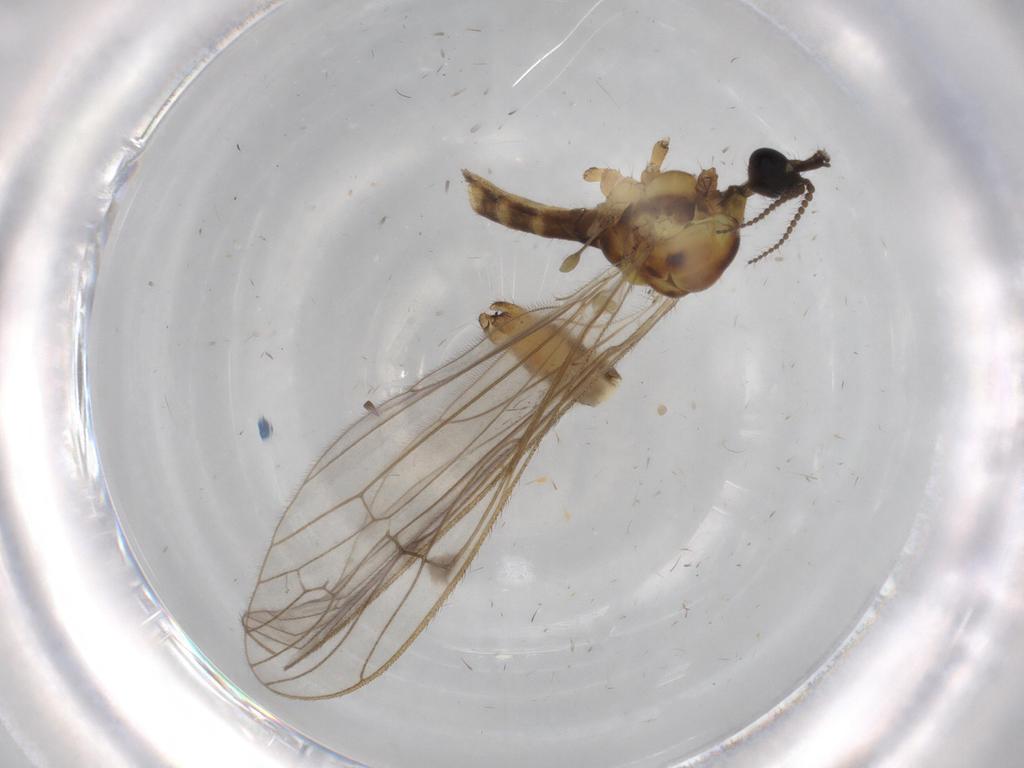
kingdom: Animalia
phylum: Arthropoda
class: Insecta
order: Diptera
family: Limoniidae
